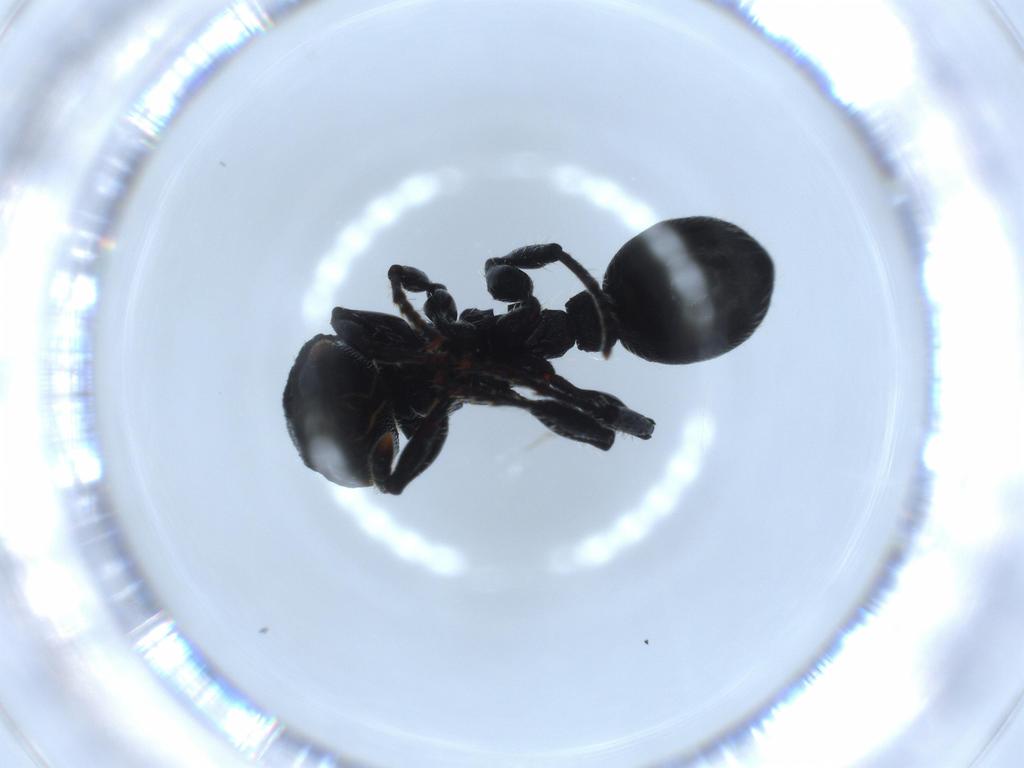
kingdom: Animalia
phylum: Arthropoda
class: Insecta
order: Hymenoptera
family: Formicidae
